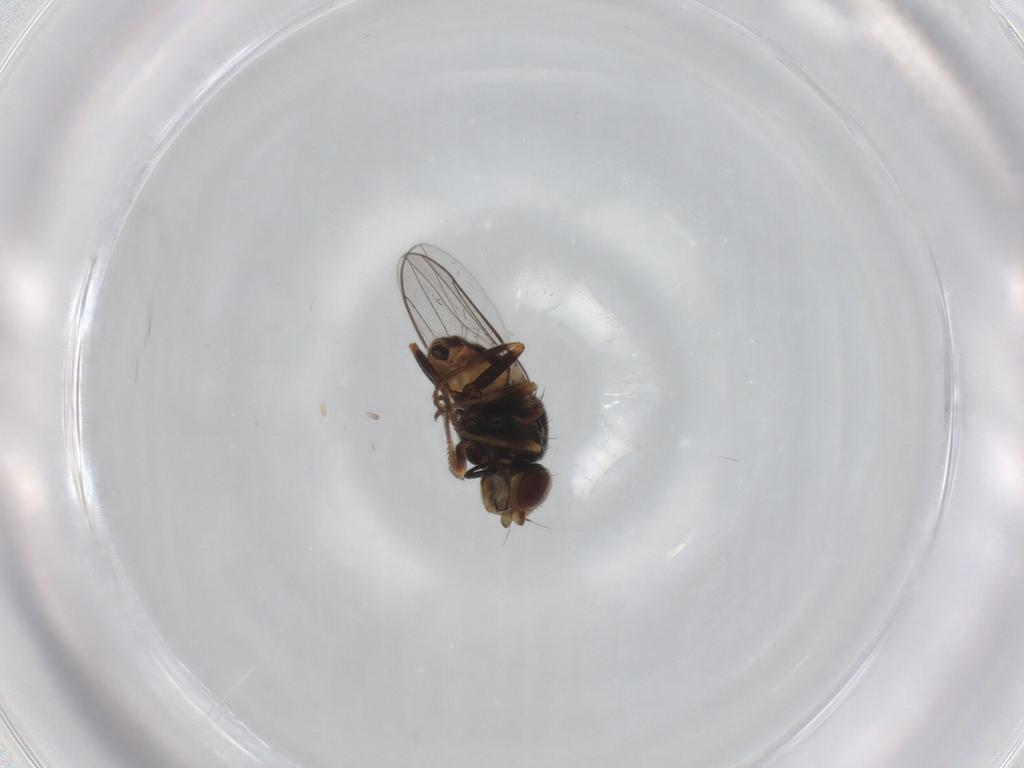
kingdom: Animalia
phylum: Arthropoda
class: Insecta
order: Diptera
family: Chloropidae
